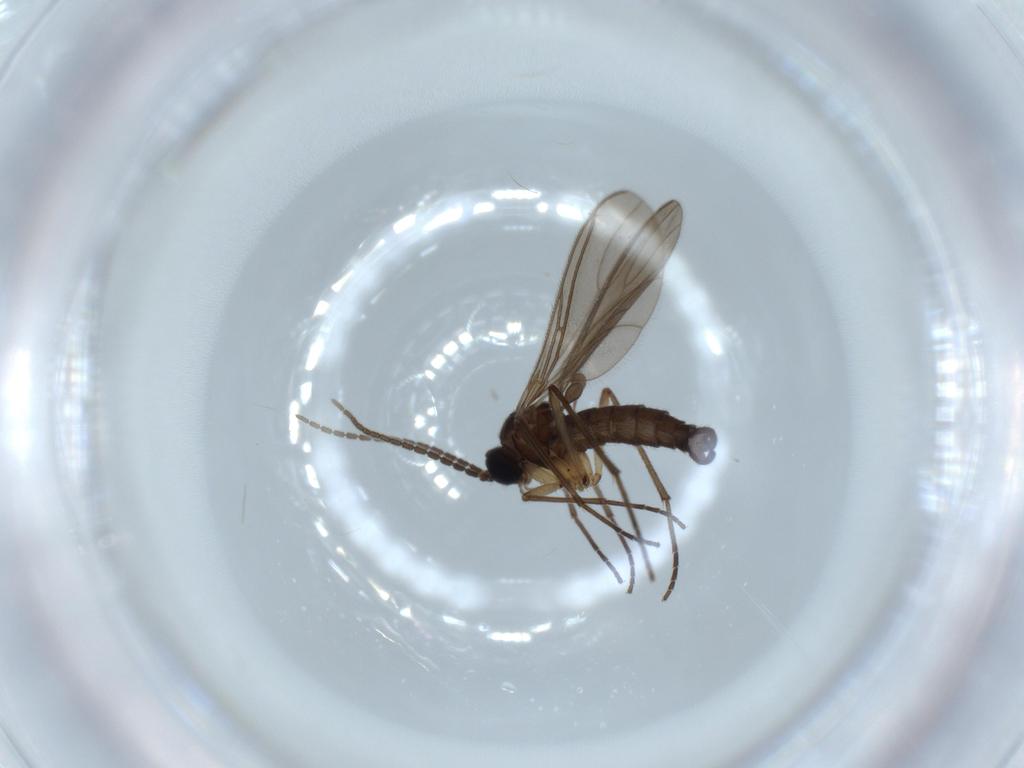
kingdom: Animalia
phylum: Arthropoda
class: Insecta
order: Diptera
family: Sciaridae
